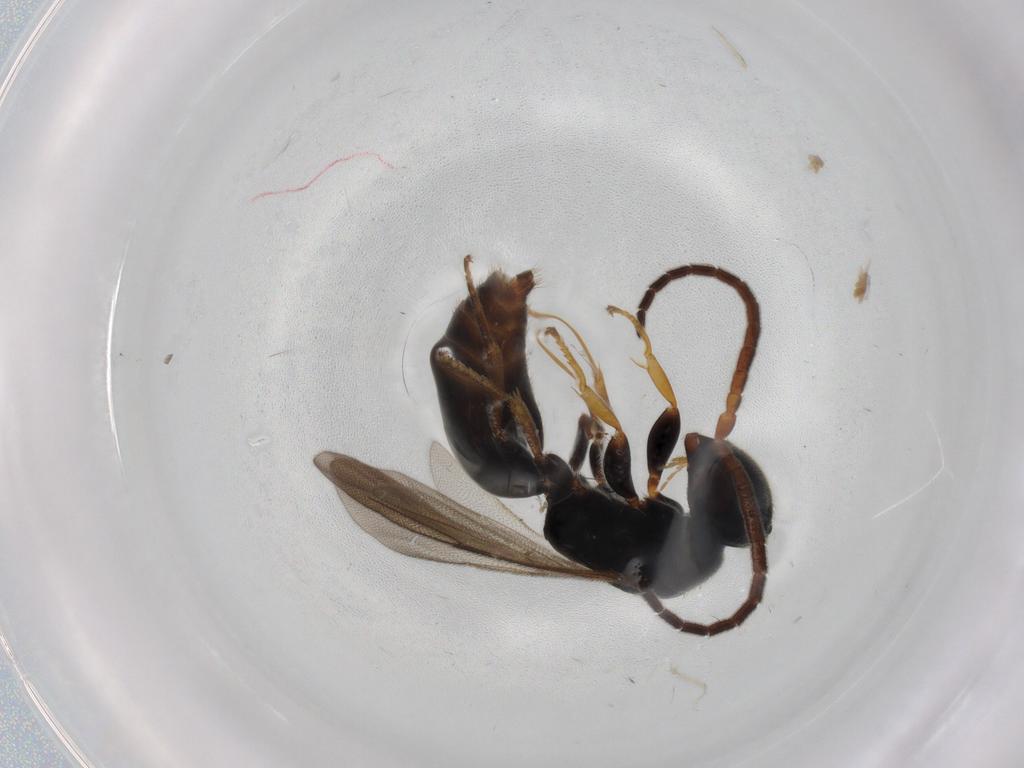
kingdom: Animalia
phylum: Arthropoda
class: Insecta
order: Hymenoptera
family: Bethylidae
